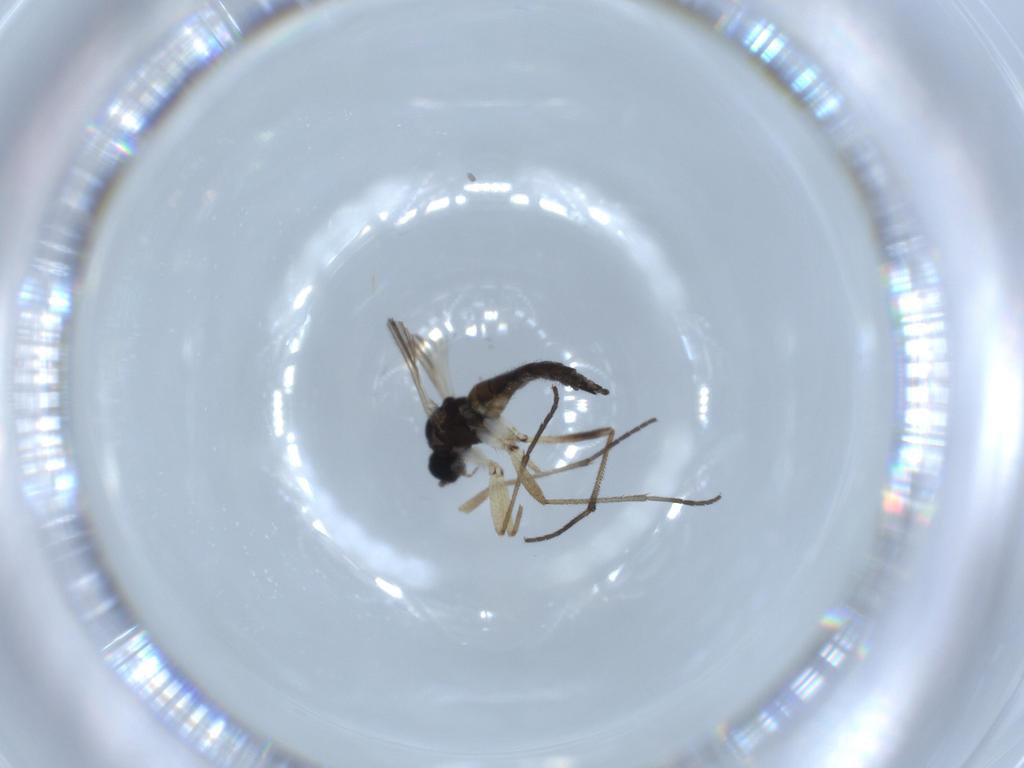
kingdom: Animalia
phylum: Arthropoda
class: Insecta
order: Diptera
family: Sciaridae
